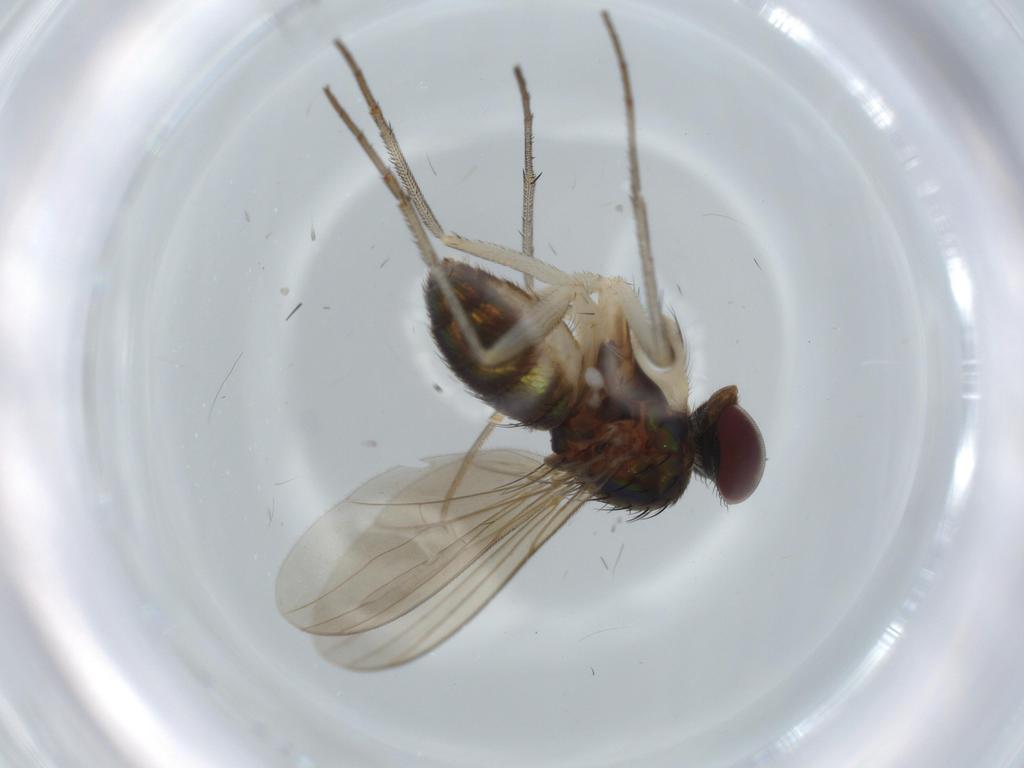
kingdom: Animalia
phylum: Arthropoda
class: Insecta
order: Diptera
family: Dolichopodidae
